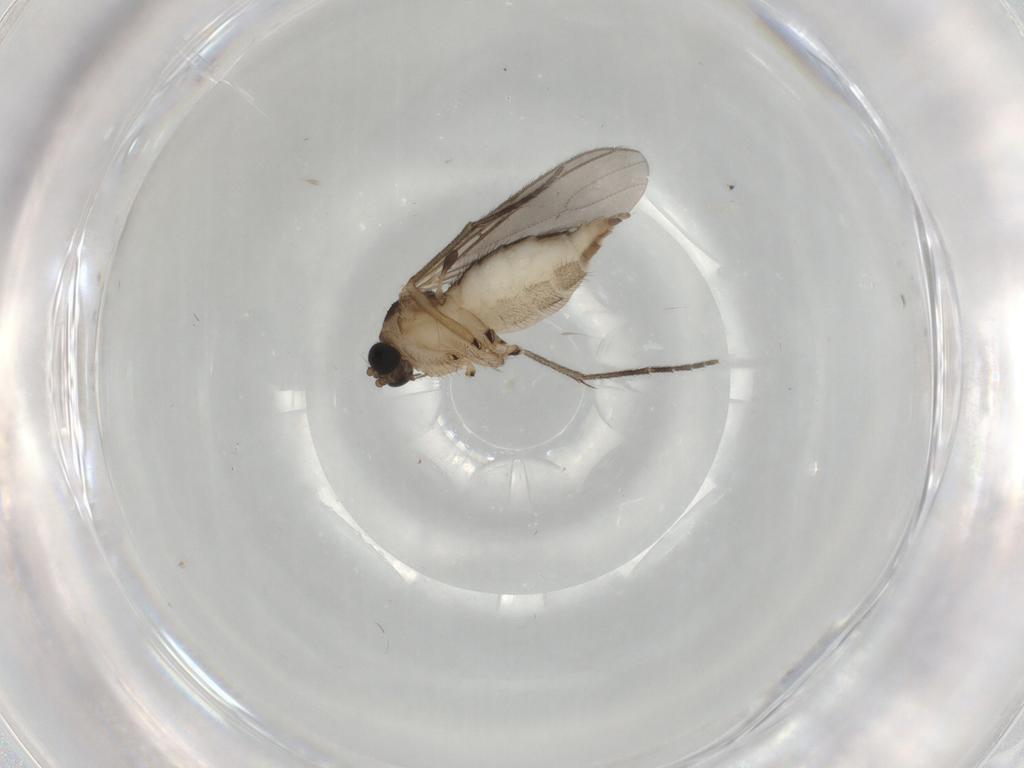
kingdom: Animalia
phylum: Arthropoda
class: Insecta
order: Diptera
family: Sciaridae
